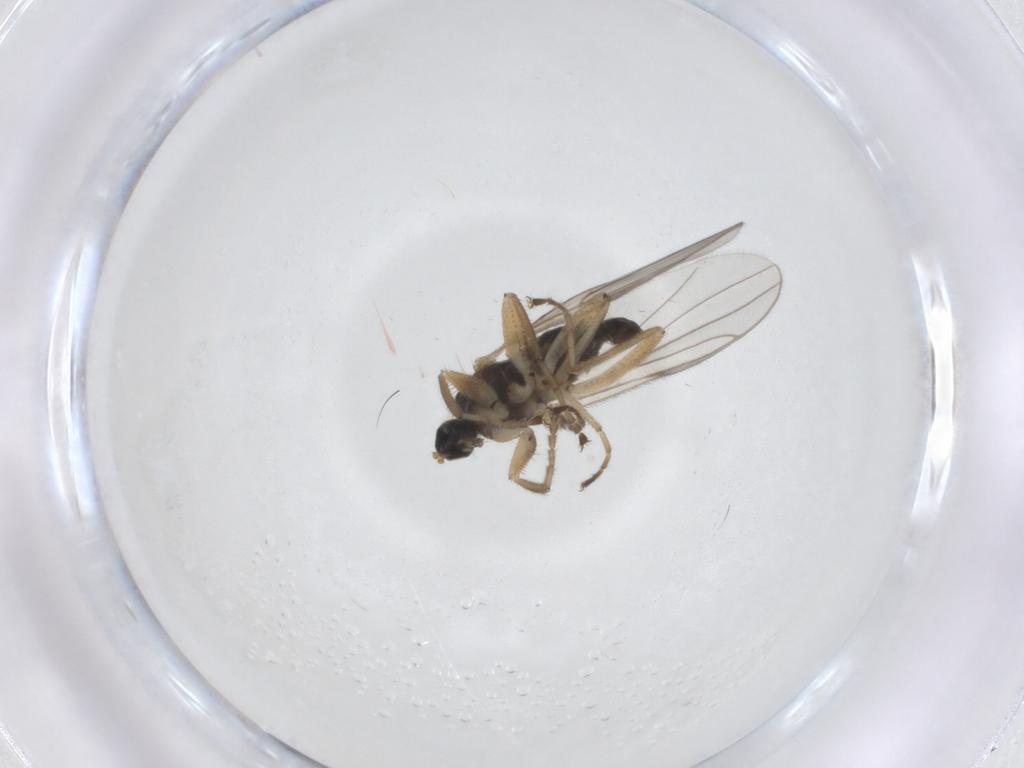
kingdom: Animalia
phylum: Arthropoda
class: Insecta
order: Diptera
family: Hybotidae
